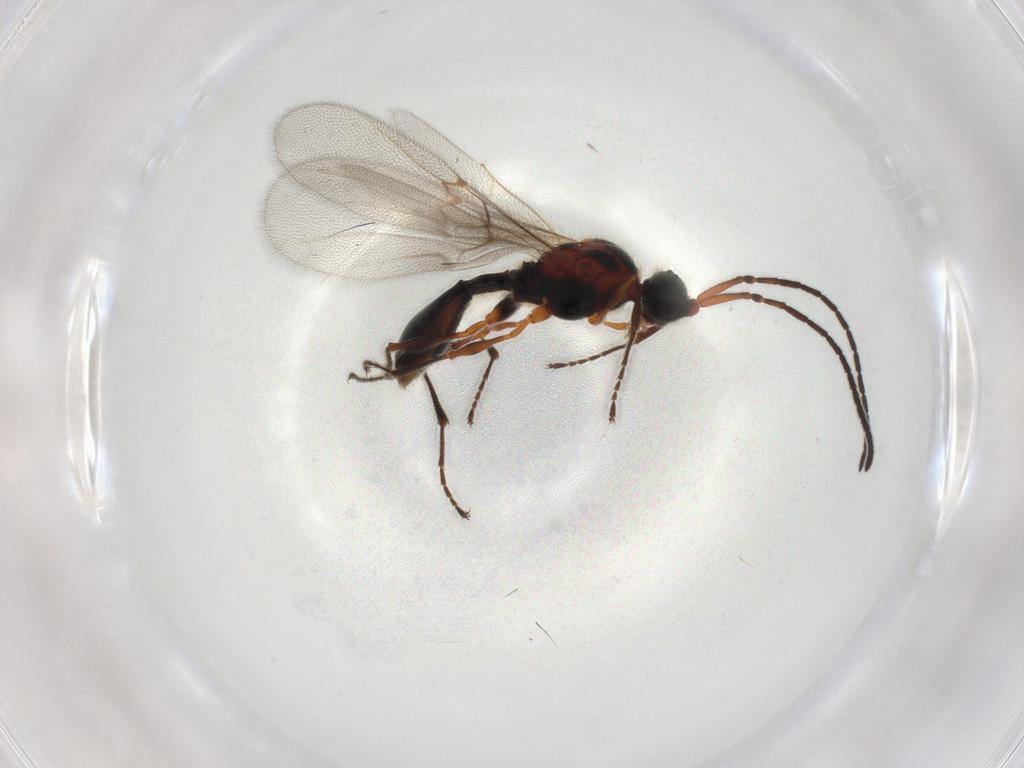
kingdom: Animalia
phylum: Arthropoda
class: Insecta
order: Hymenoptera
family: Diapriidae
